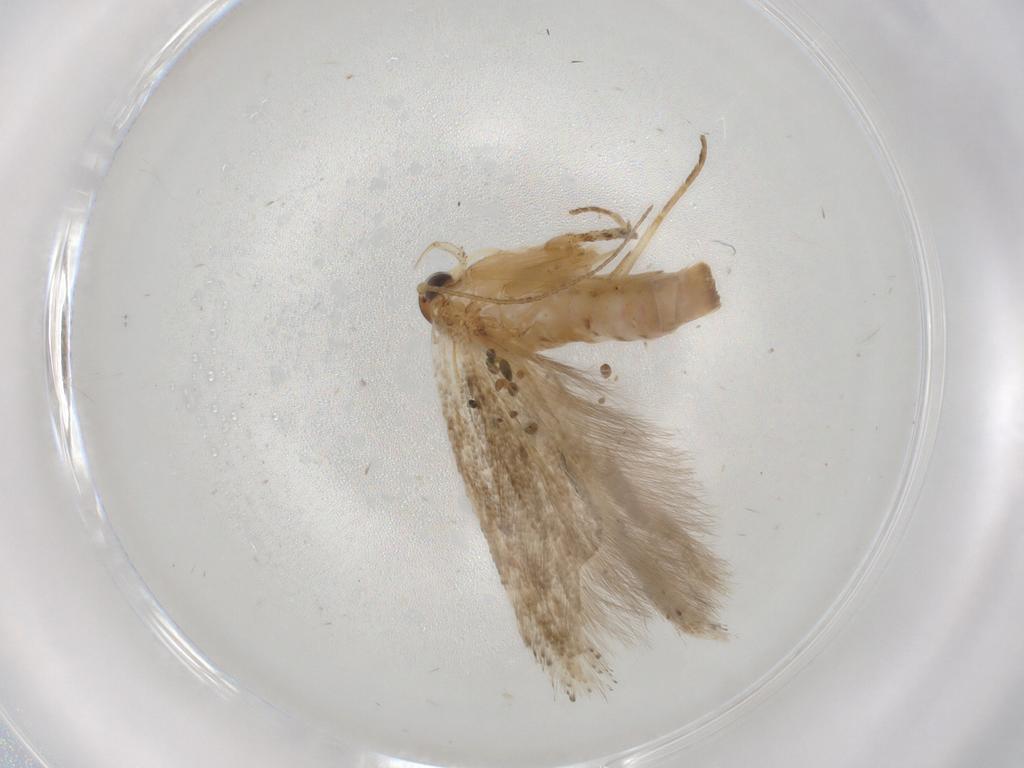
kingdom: Animalia
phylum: Arthropoda
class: Insecta
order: Lepidoptera
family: Gelechiidae
